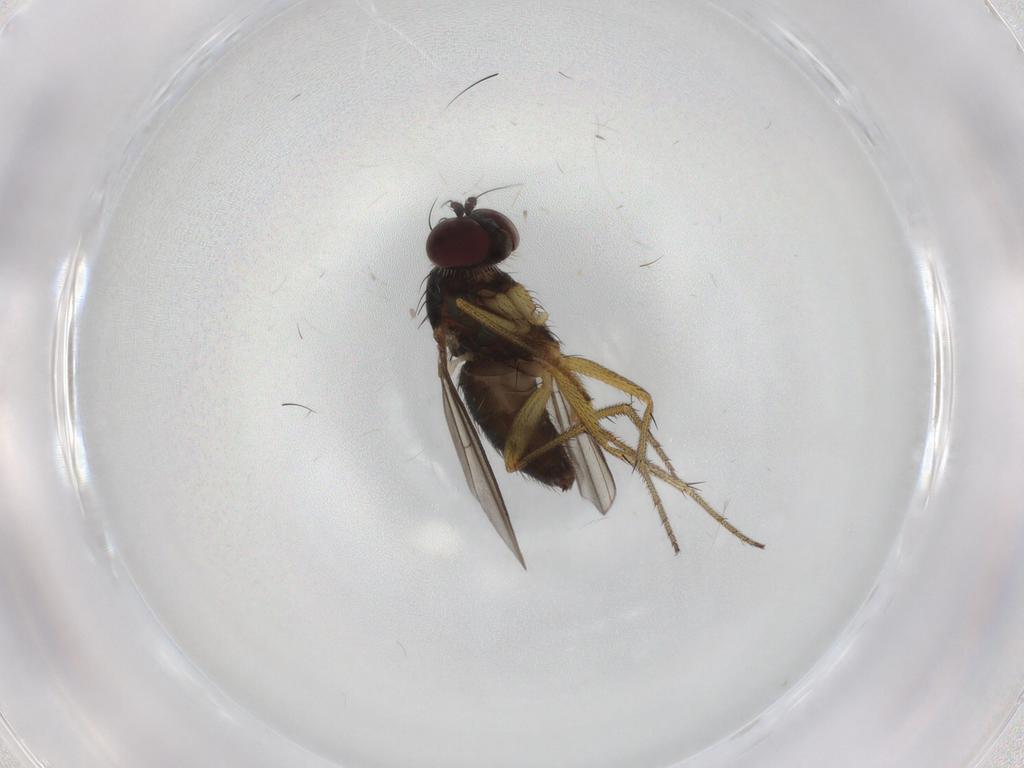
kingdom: Animalia
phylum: Arthropoda
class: Insecta
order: Diptera
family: Dolichopodidae
